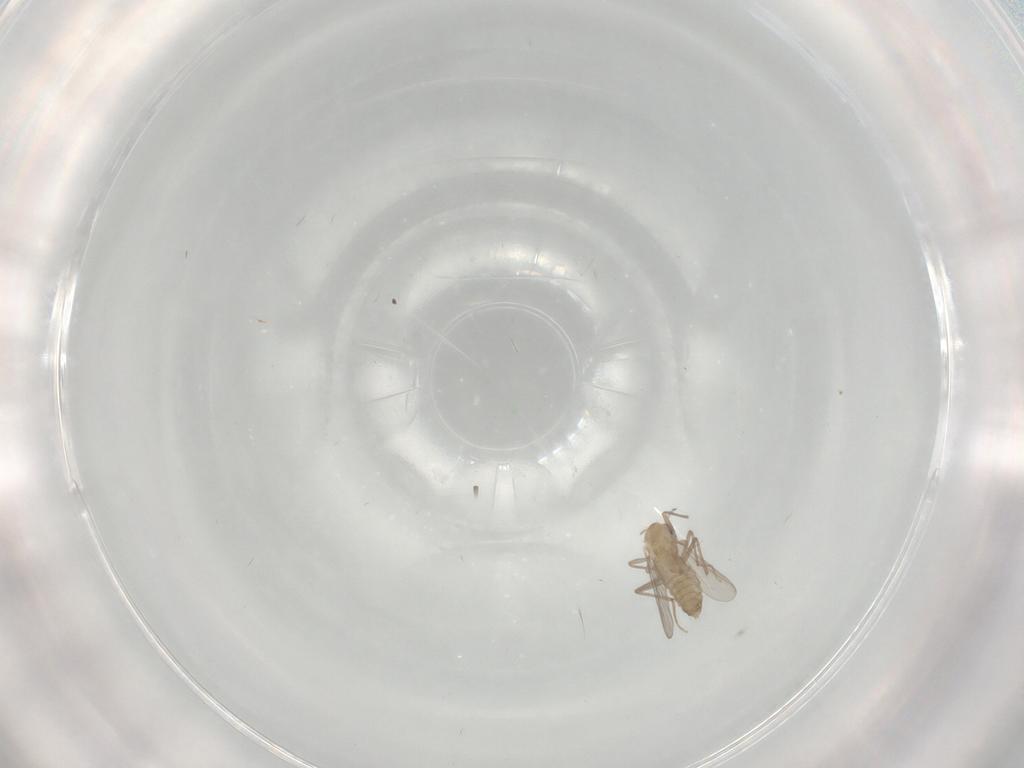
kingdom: Animalia
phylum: Arthropoda
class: Insecta
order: Diptera
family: Chironomidae
